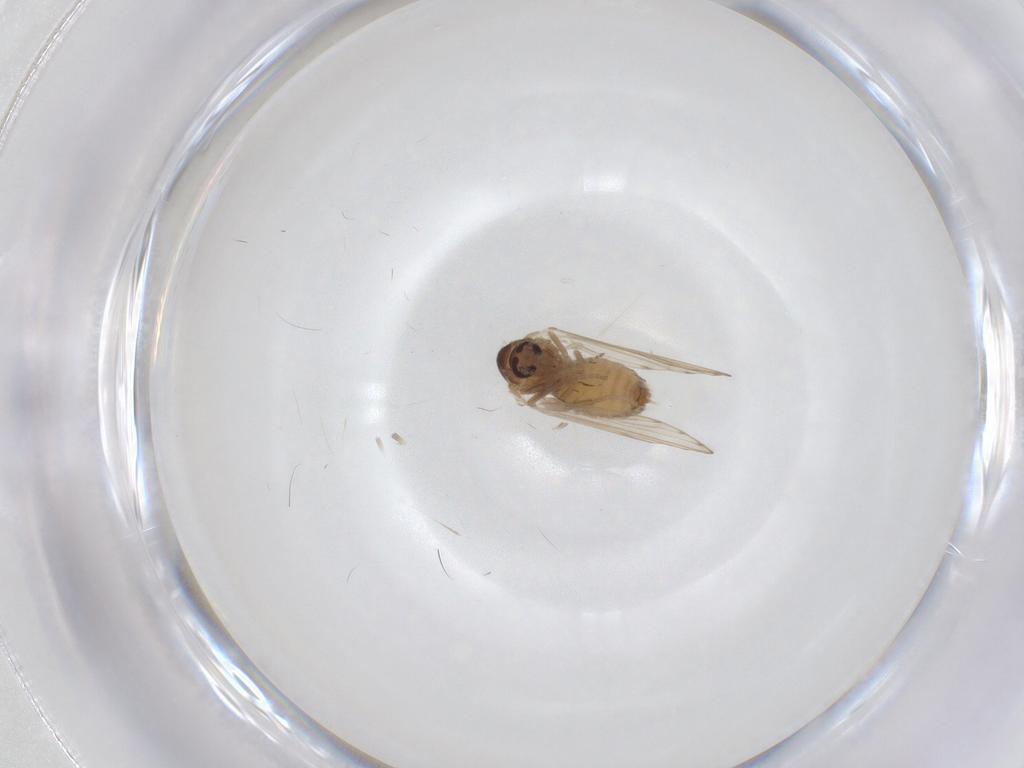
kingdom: Animalia
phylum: Arthropoda
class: Insecta
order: Diptera
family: Psychodidae
